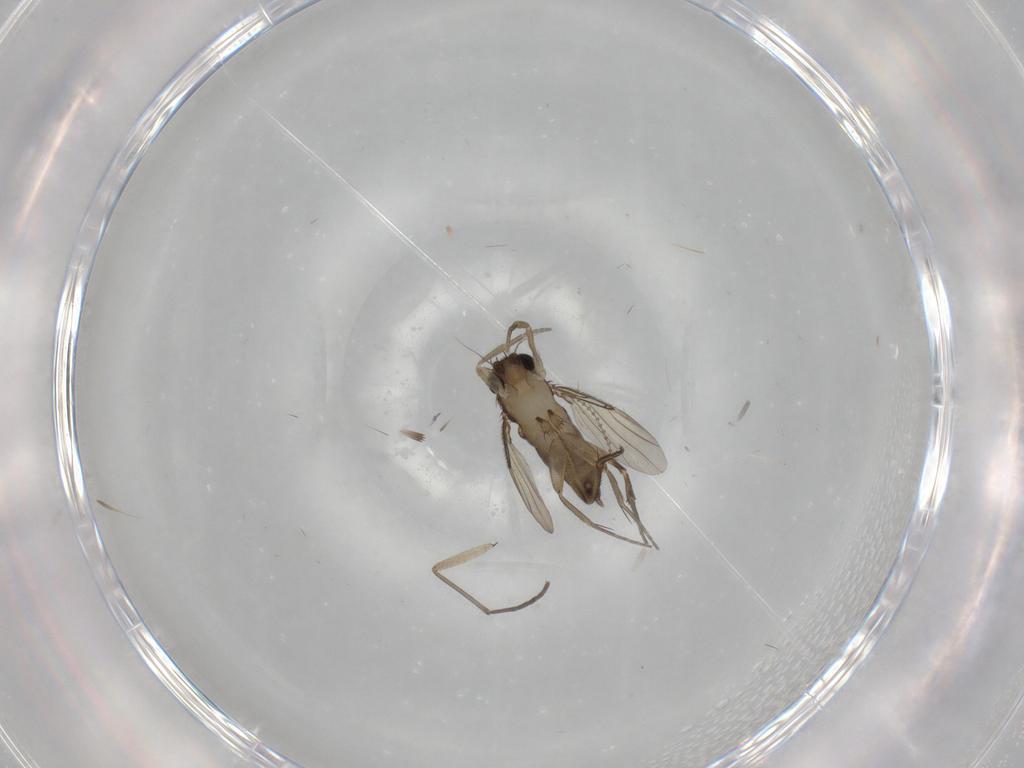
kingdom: Animalia
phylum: Arthropoda
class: Insecta
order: Diptera
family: Phoridae
